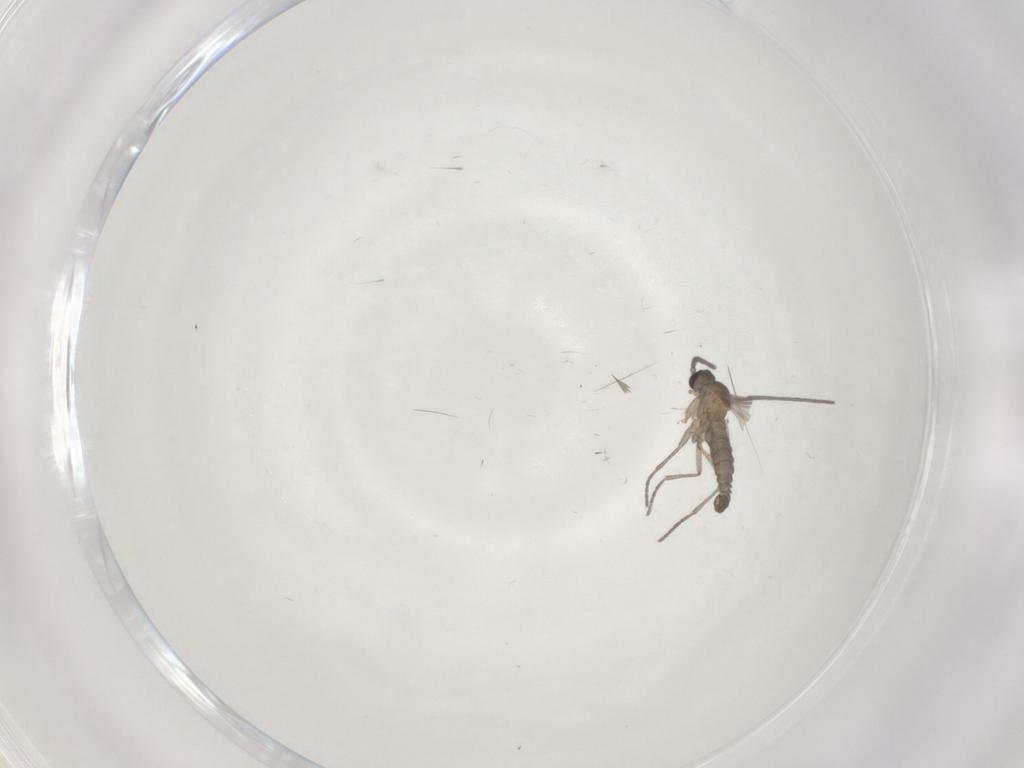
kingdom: Animalia
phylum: Arthropoda
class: Insecta
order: Diptera
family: Sciaridae
